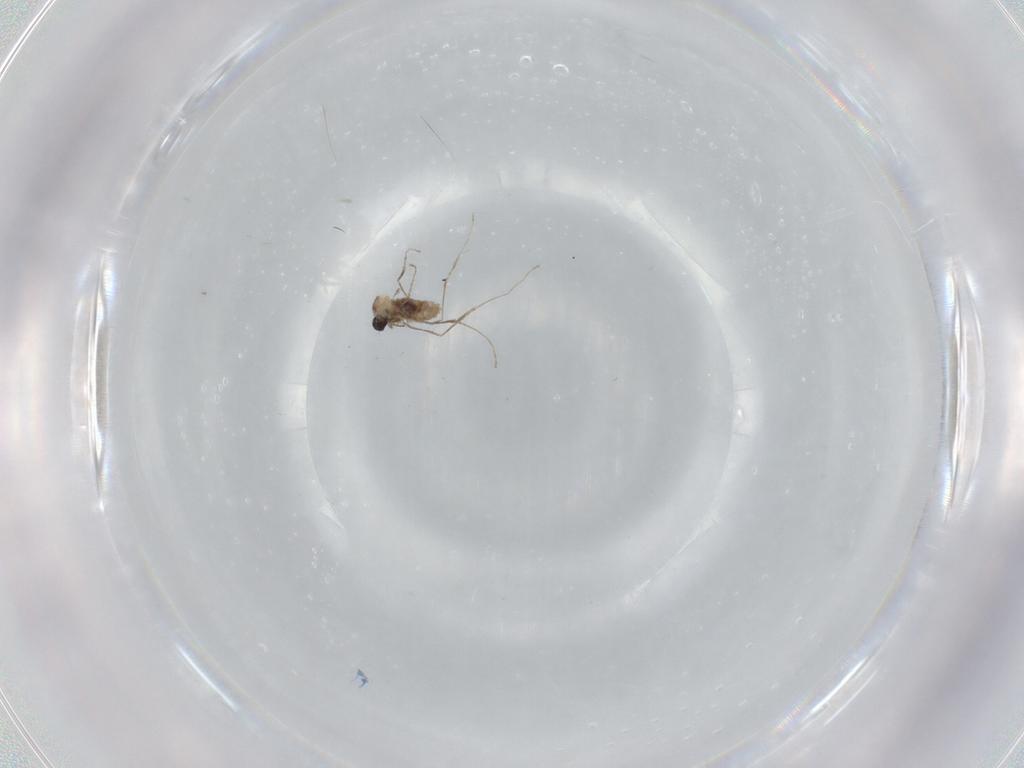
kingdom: Animalia
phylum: Arthropoda
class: Insecta
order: Diptera
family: Cecidomyiidae
